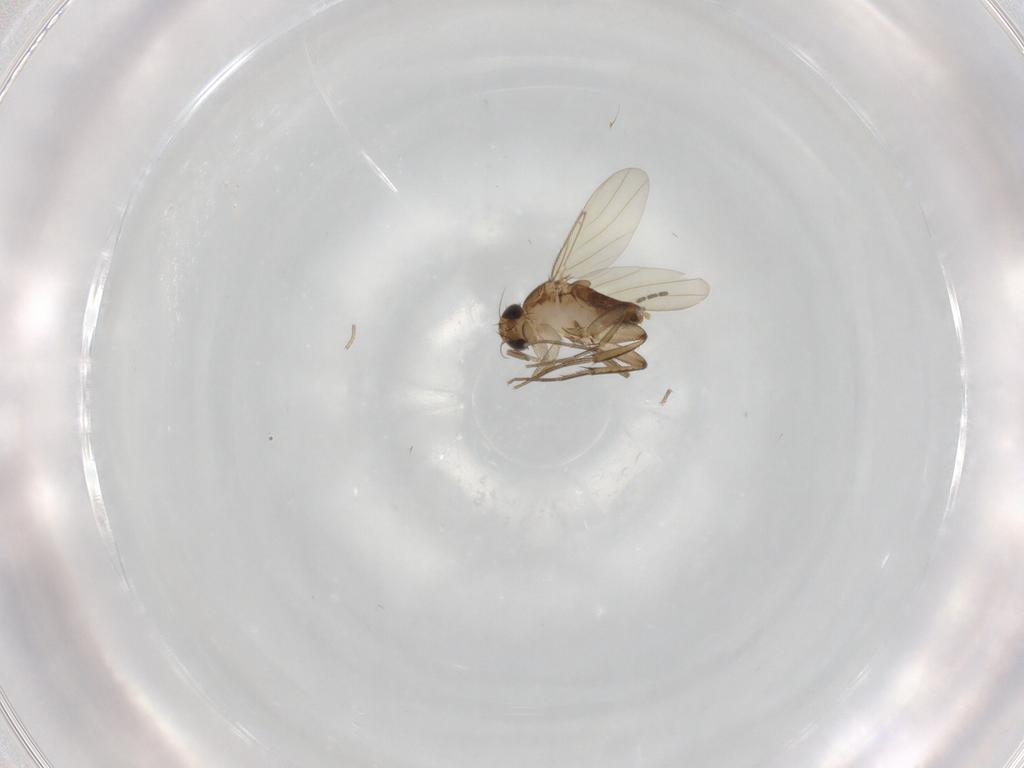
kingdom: Animalia
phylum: Arthropoda
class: Insecta
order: Diptera
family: Phoridae
